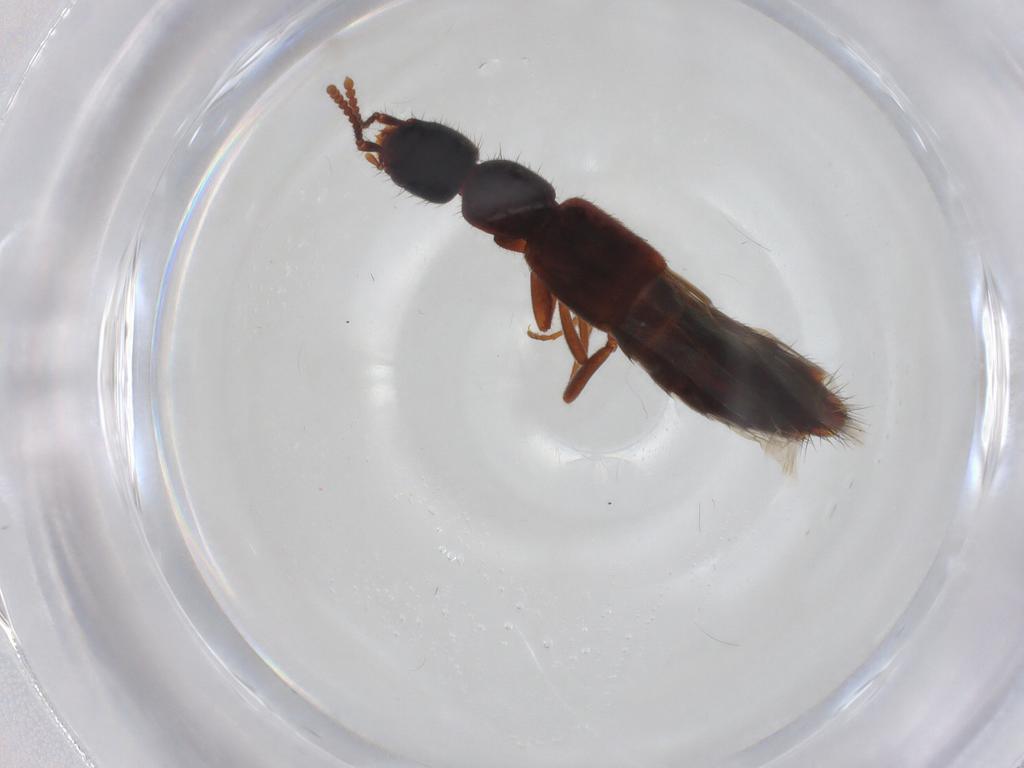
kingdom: Animalia
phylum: Arthropoda
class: Insecta
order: Coleoptera
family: Staphylinidae
